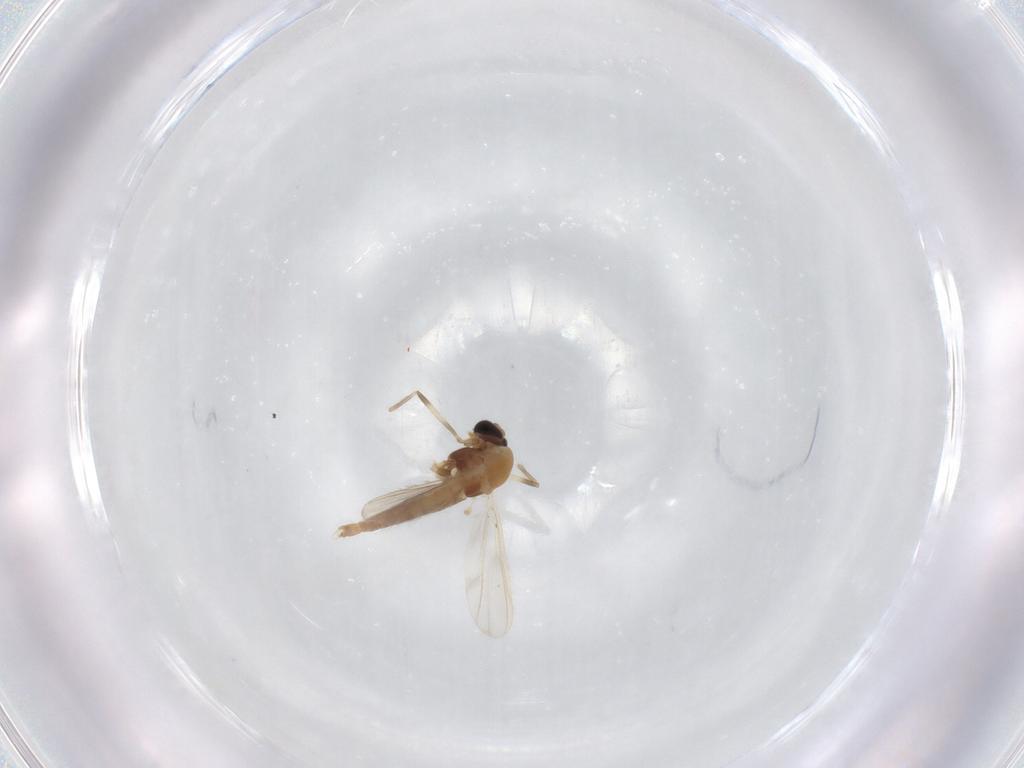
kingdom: Animalia
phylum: Arthropoda
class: Insecta
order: Diptera
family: Chironomidae
